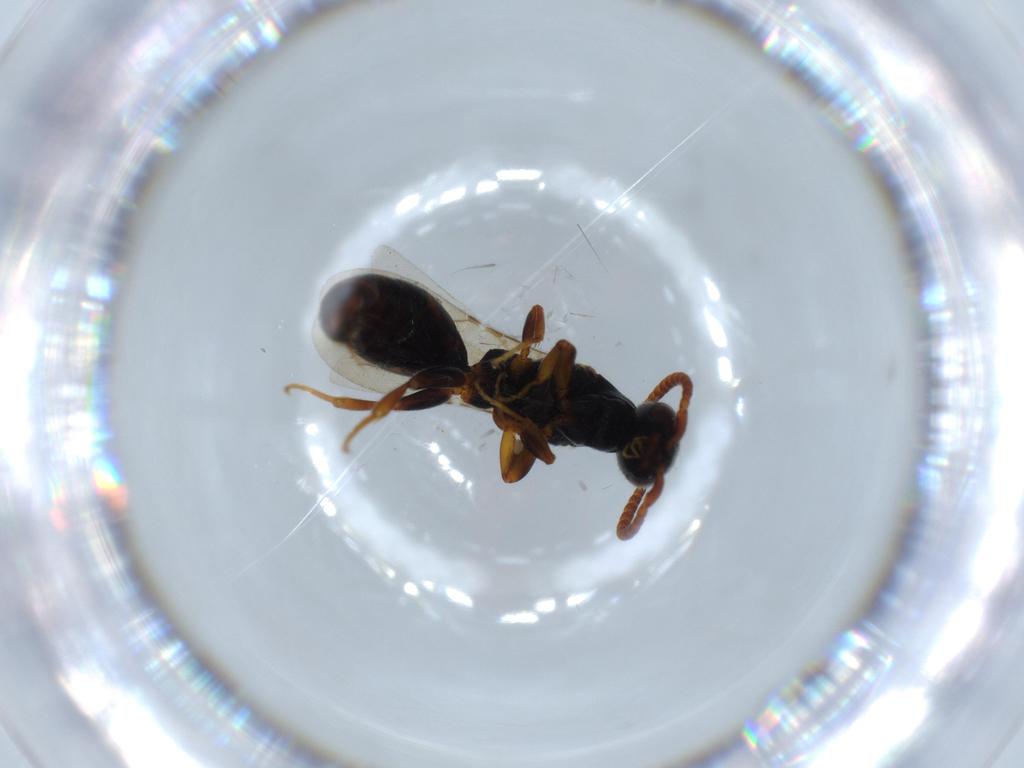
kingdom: Animalia
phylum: Arthropoda
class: Insecta
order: Hymenoptera
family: Bethylidae
